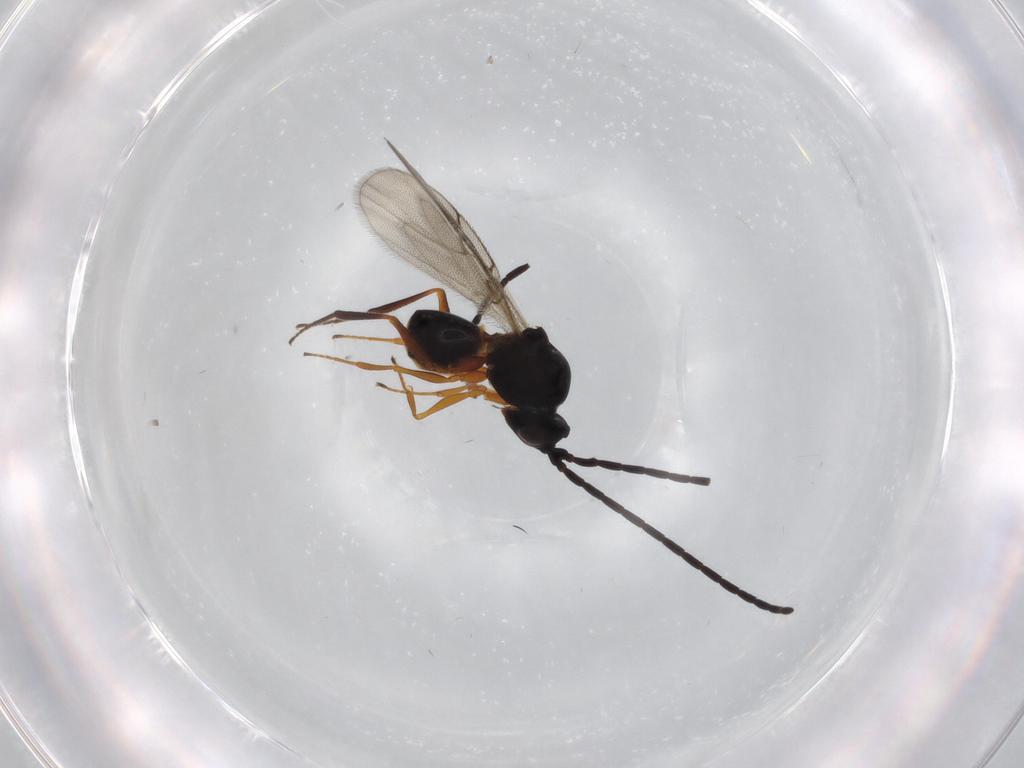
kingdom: Animalia
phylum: Arthropoda
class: Insecta
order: Hymenoptera
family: Figitidae
